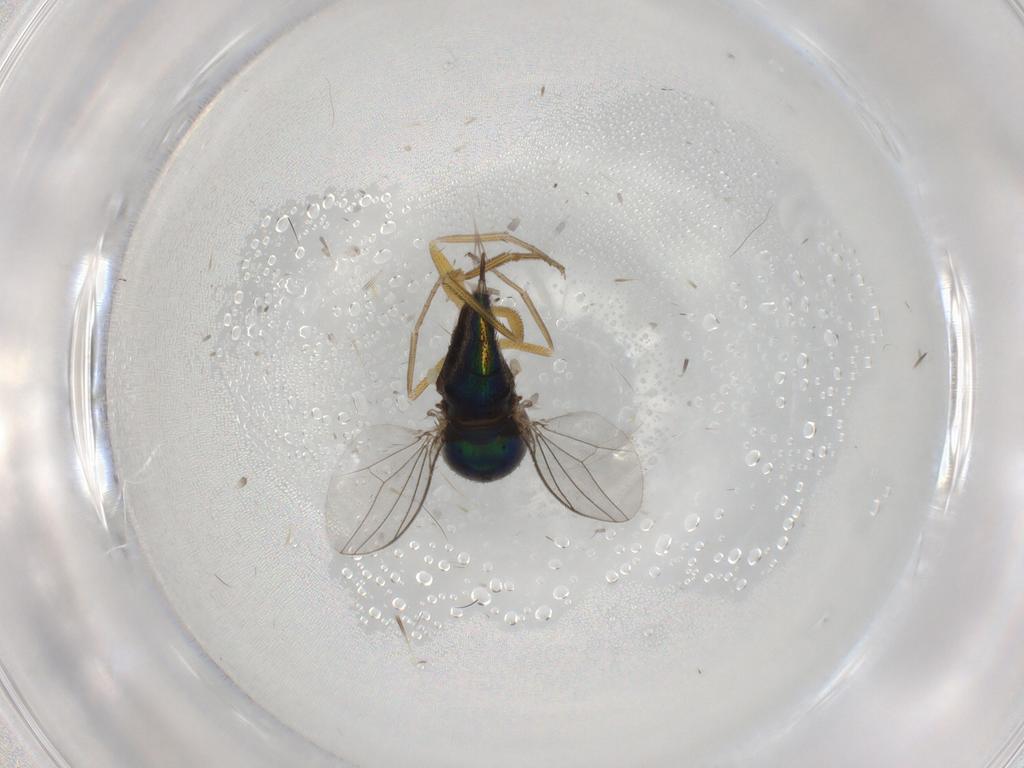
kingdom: Animalia
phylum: Arthropoda
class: Insecta
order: Diptera
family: Dolichopodidae
